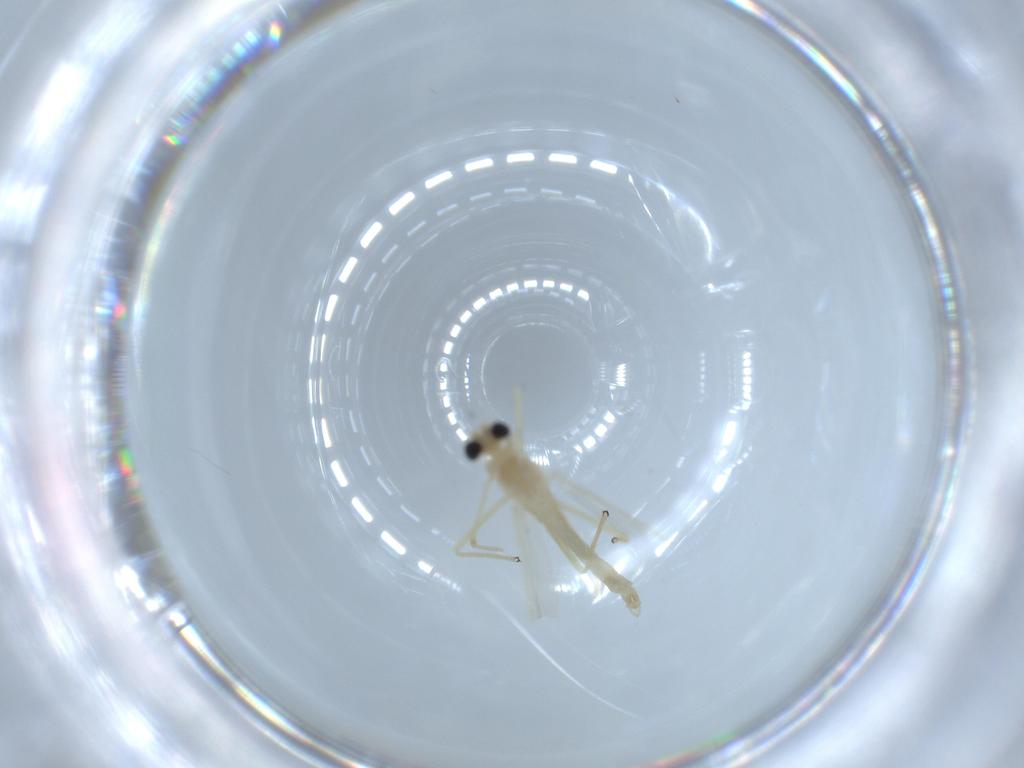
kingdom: Animalia
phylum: Arthropoda
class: Insecta
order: Diptera
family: Chironomidae
